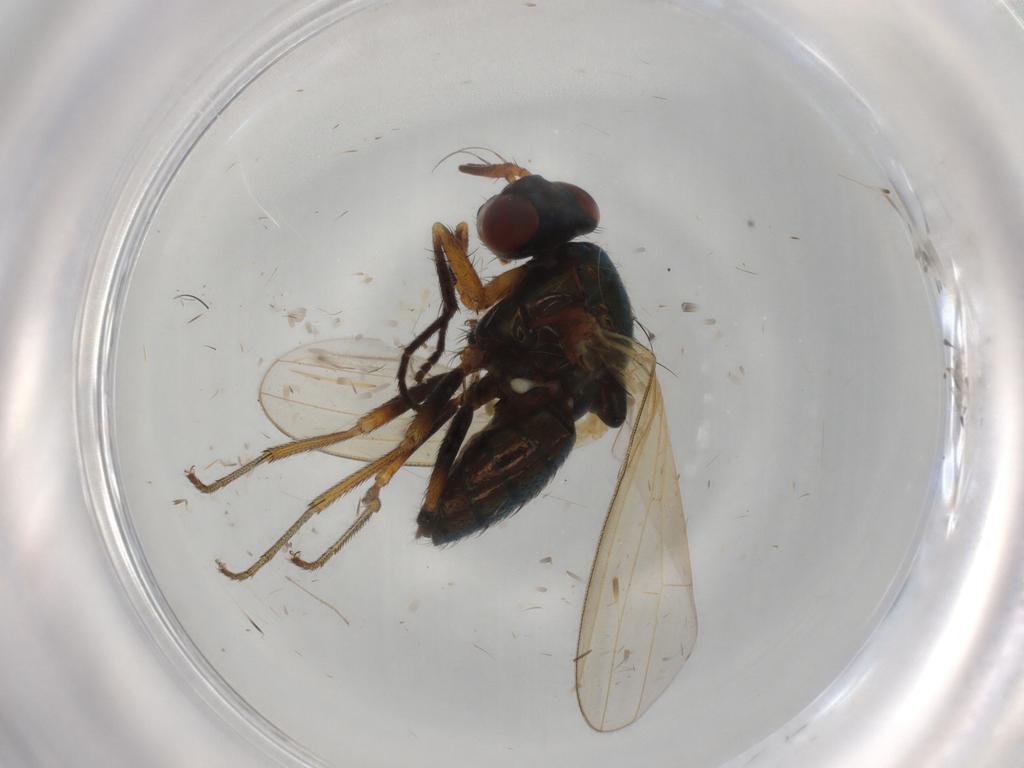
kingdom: Animalia
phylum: Arthropoda
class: Insecta
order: Diptera
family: Lauxaniidae
